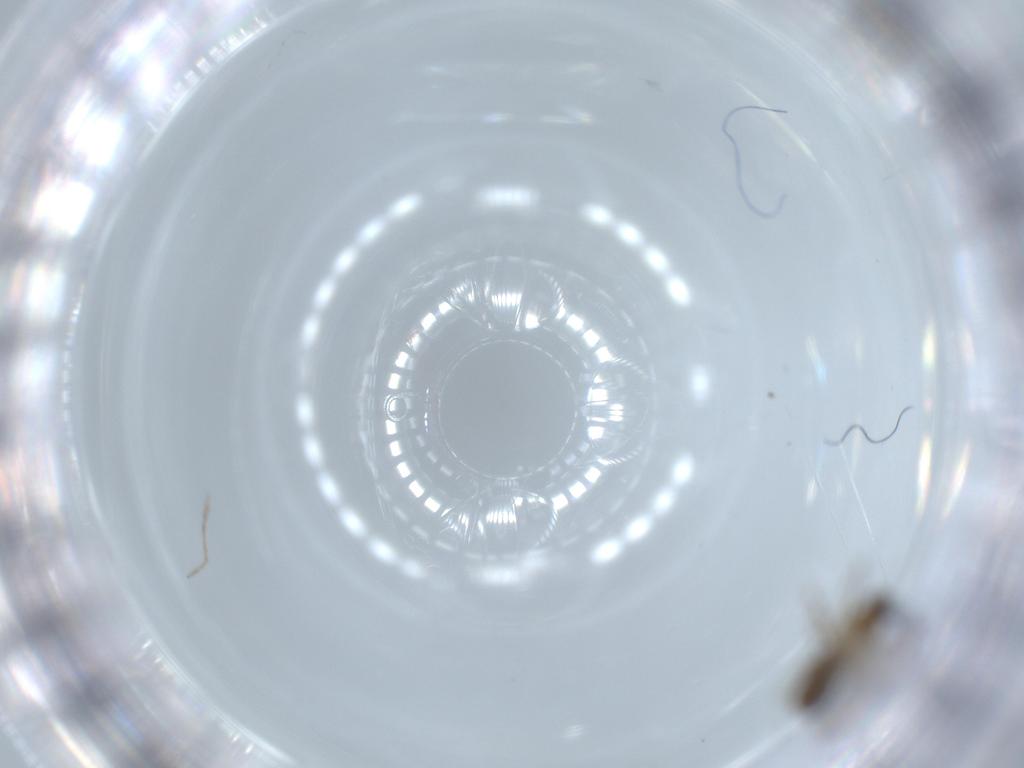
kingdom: Animalia
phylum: Arthropoda
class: Insecta
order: Diptera
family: Cecidomyiidae
